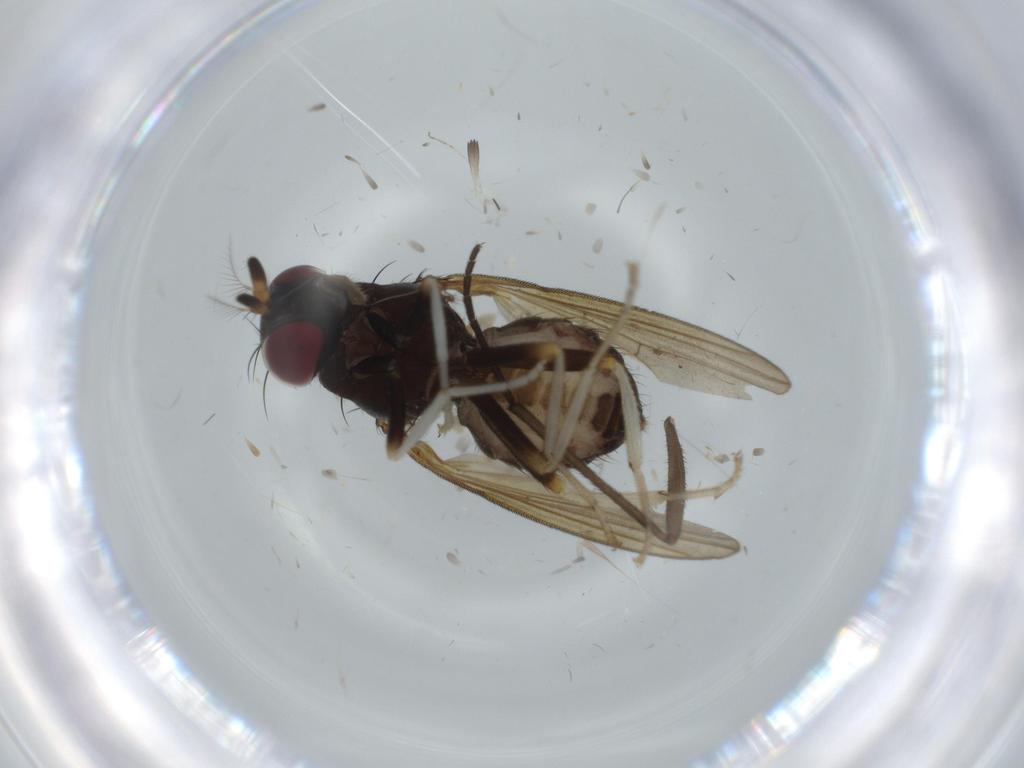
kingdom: Animalia
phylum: Arthropoda
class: Insecta
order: Diptera
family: Lauxaniidae
